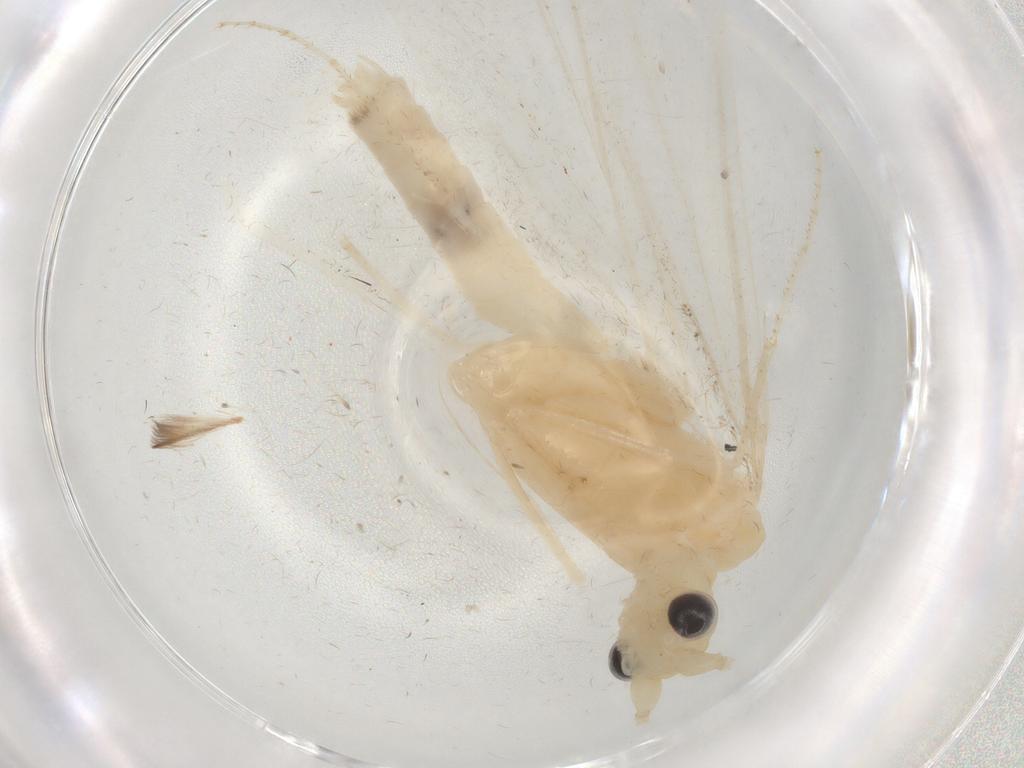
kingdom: Animalia
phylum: Arthropoda
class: Insecta
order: Trichoptera
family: Leptoceridae
